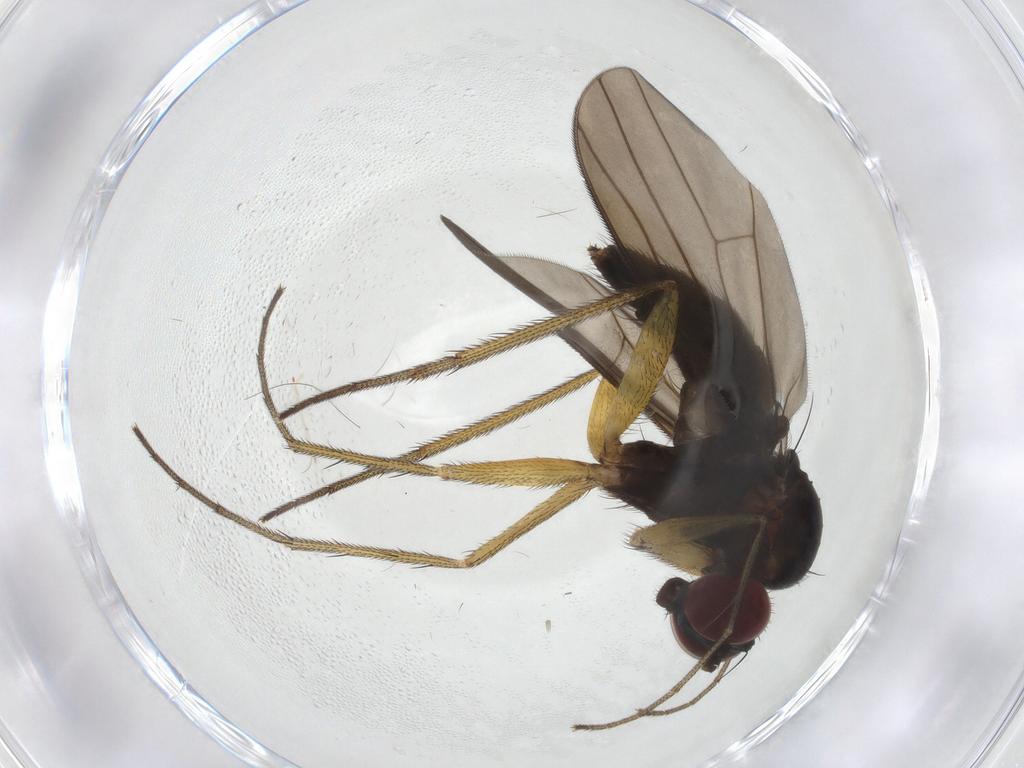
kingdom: Animalia
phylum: Arthropoda
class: Insecta
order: Diptera
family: Dolichopodidae
